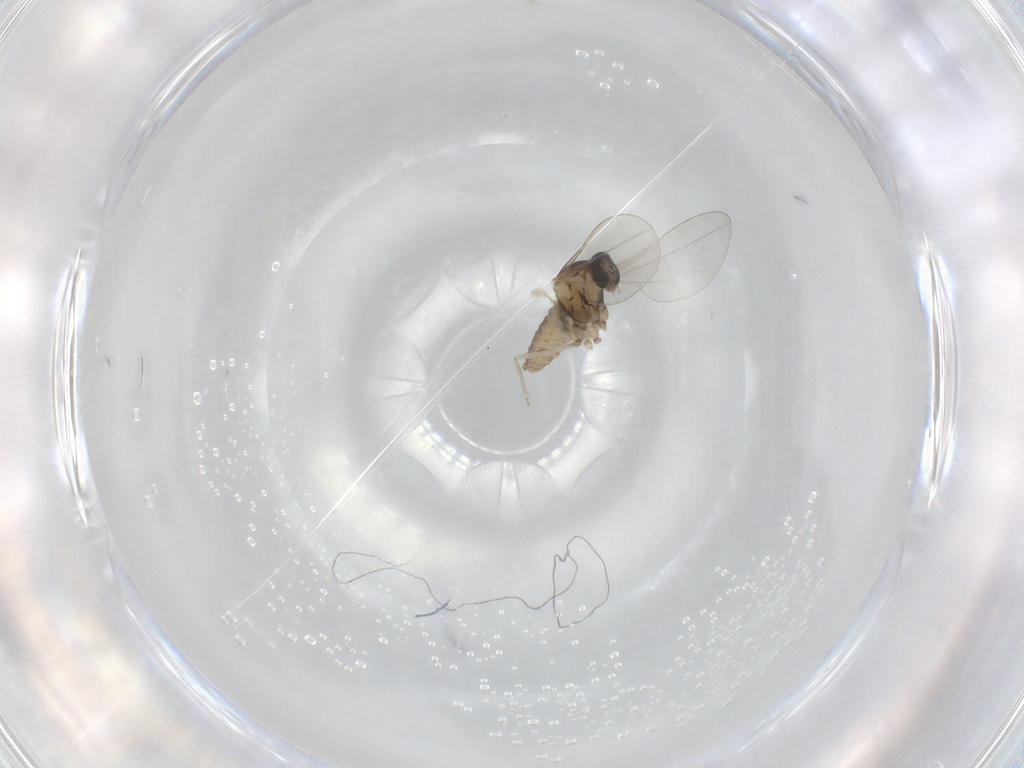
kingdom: Animalia
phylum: Arthropoda
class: Insecta
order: Diptera
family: Cecidomyiidae
